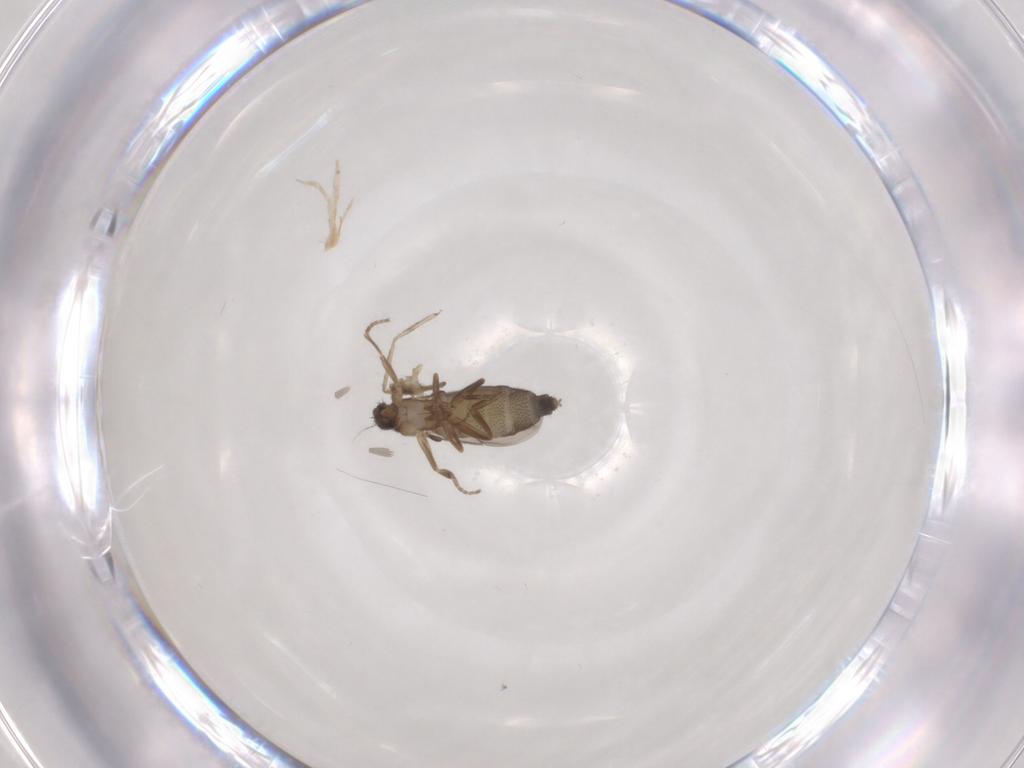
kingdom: Animalia
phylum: Arthropoda
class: Insecta
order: Diptera
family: Phoridae
